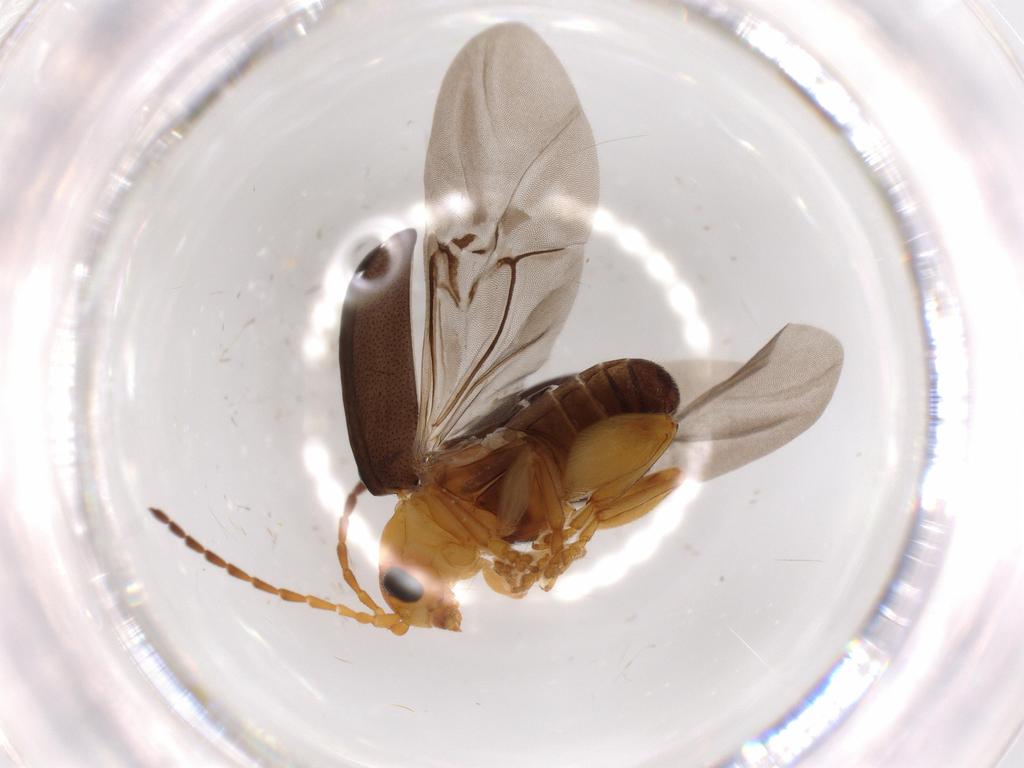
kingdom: Animalia
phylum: Arthropoda
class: Insecta
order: Coleoptera
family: Chrysomelidae
